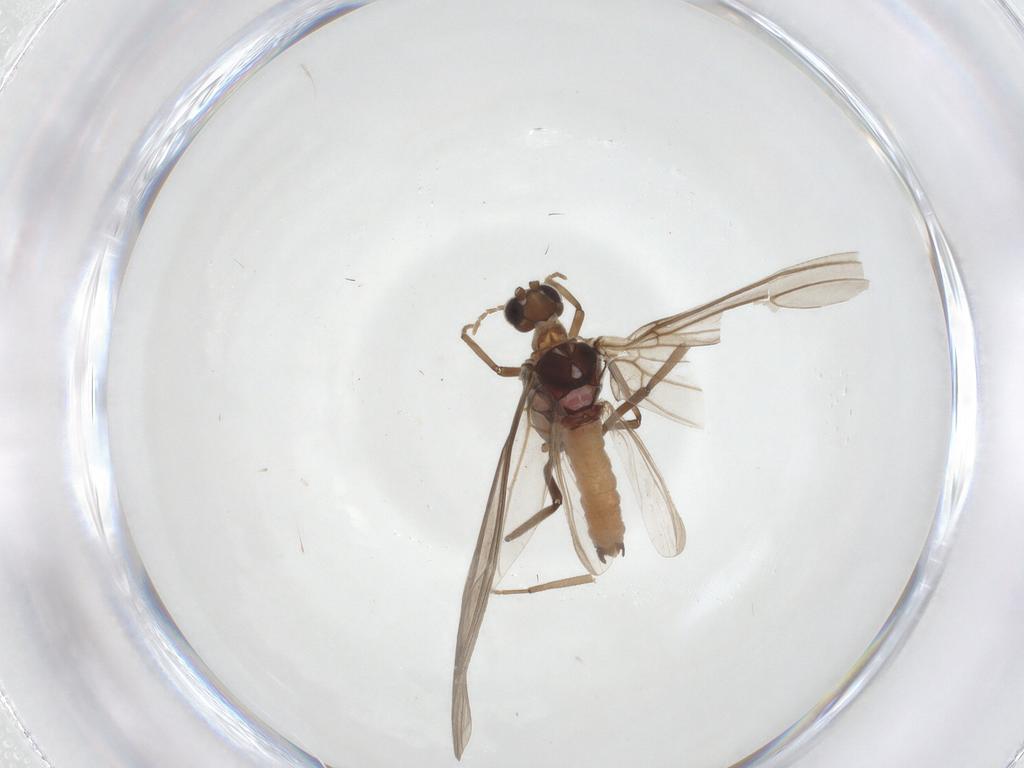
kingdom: Animalia
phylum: Arthropoda
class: Insecta
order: Neuroptera
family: Coniopterygidae
